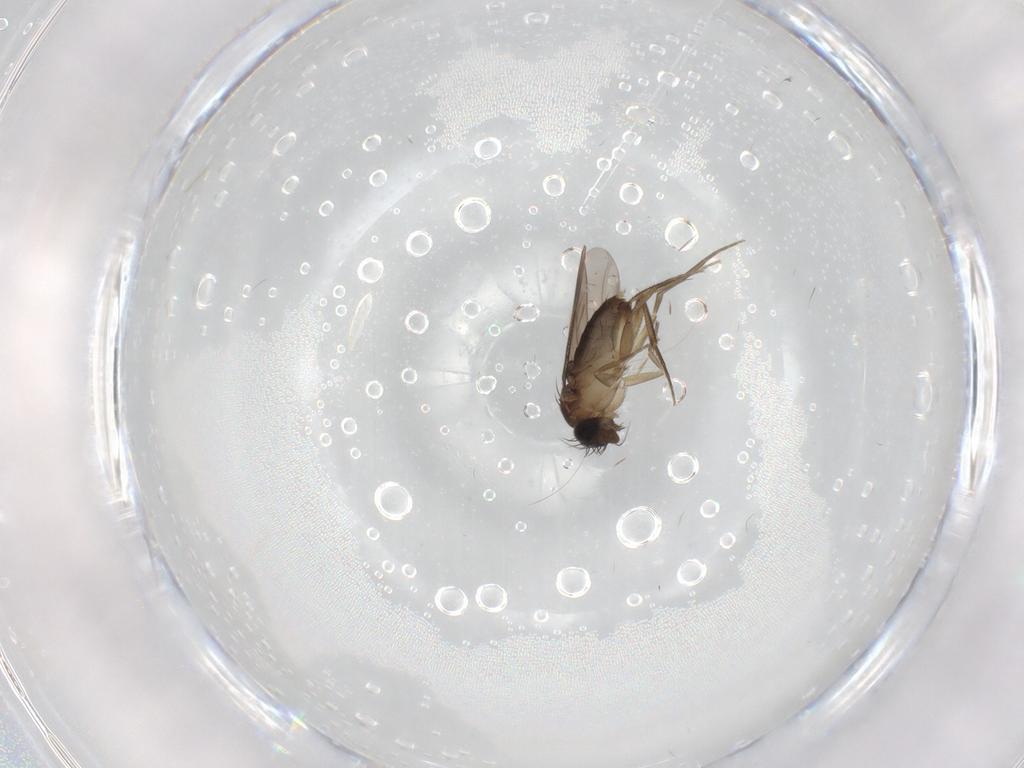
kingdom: Animalia
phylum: Arthropoda
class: Insecta
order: Diptera
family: Phoridae
